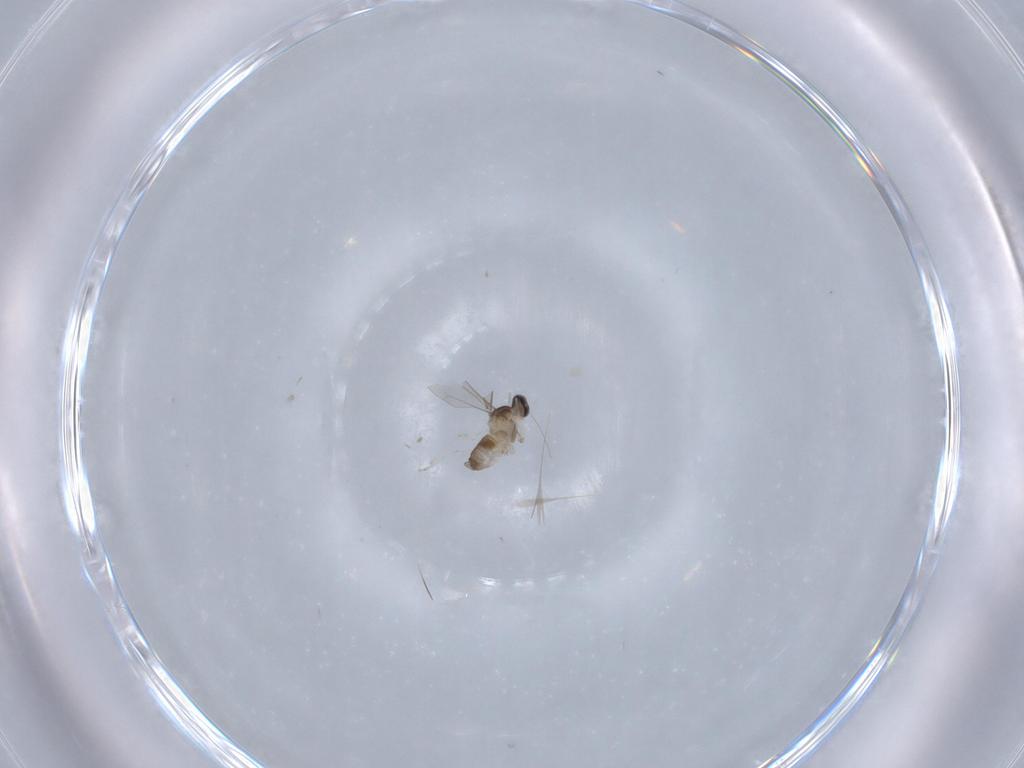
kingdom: Animalia
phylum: Arthropoda
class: Insecta
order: Diptera
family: Cecidomyiidae
